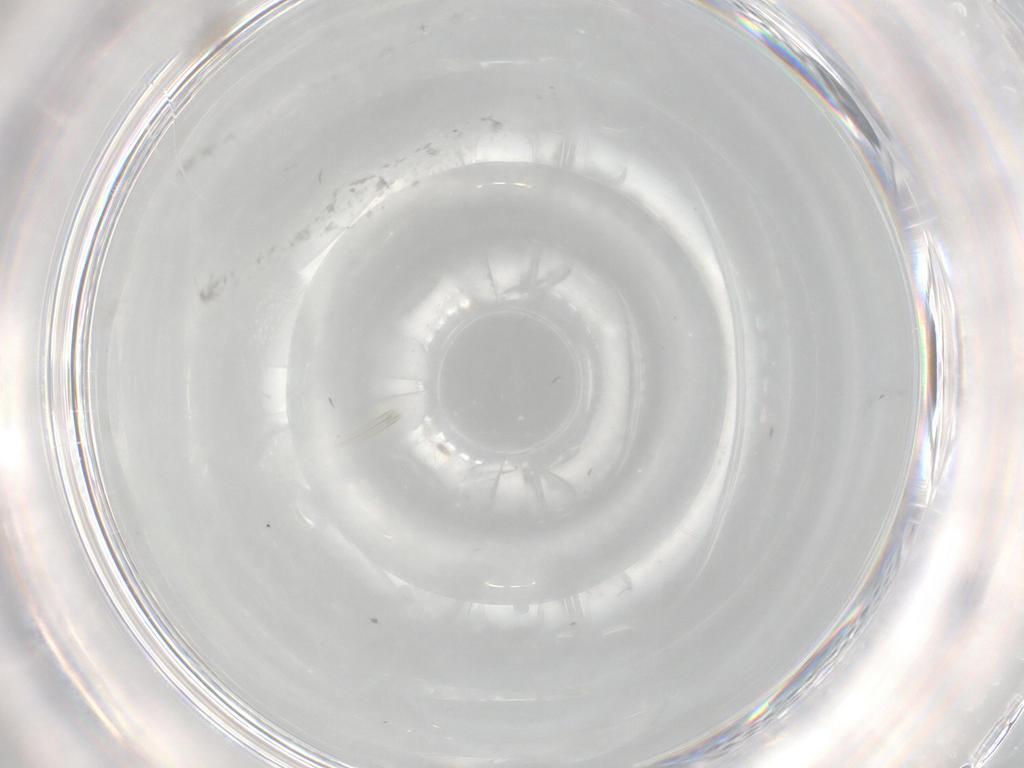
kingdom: Animalia
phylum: Arthropoda
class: Insecta
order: Diptera
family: Cecidomyiidae
